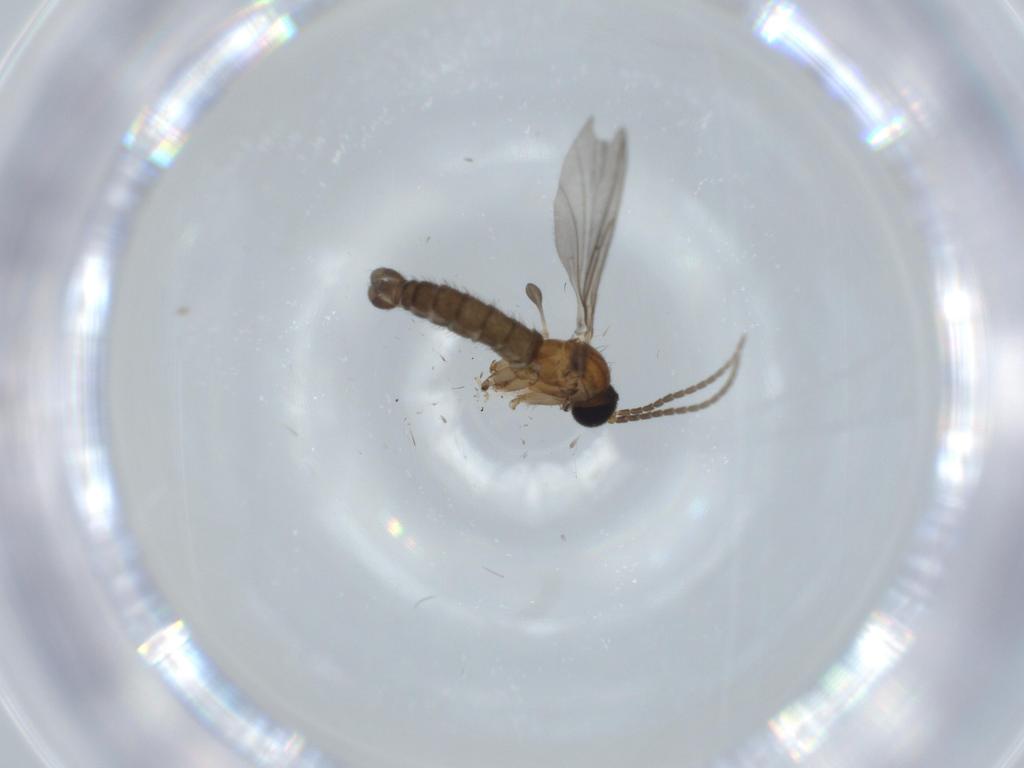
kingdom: Animalia
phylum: Arthropoda
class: Insecta
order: Diptera
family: Sciaridae
